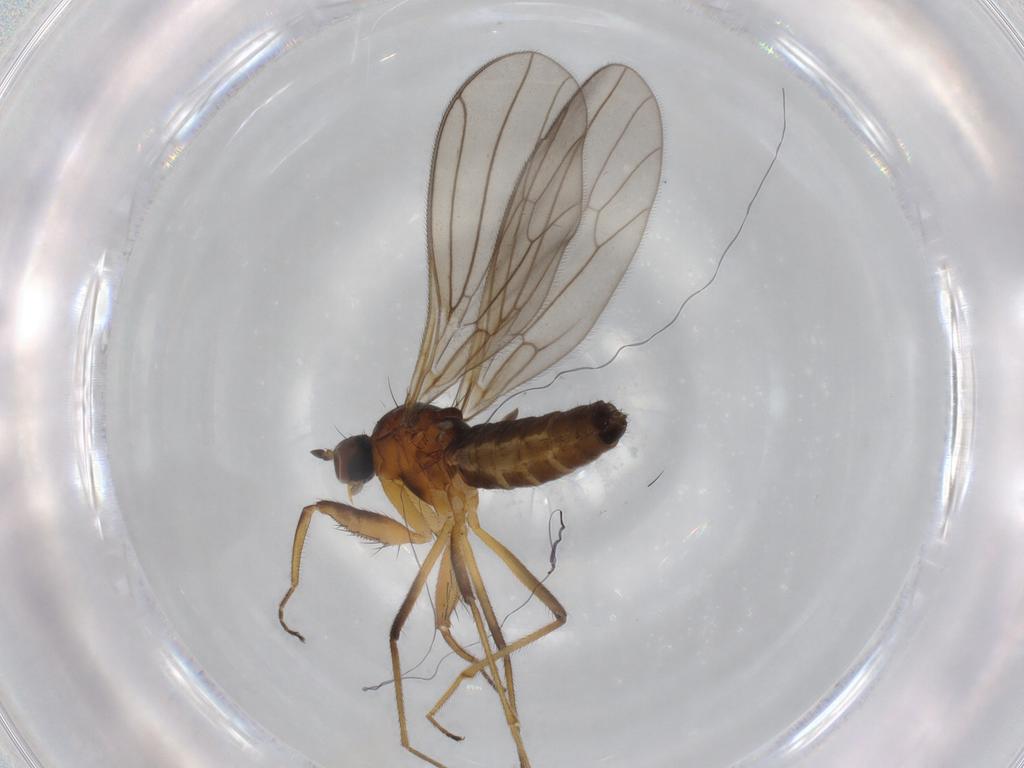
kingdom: Animalia
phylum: Arthropoda
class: Insecta
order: Diptera
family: Empididae
